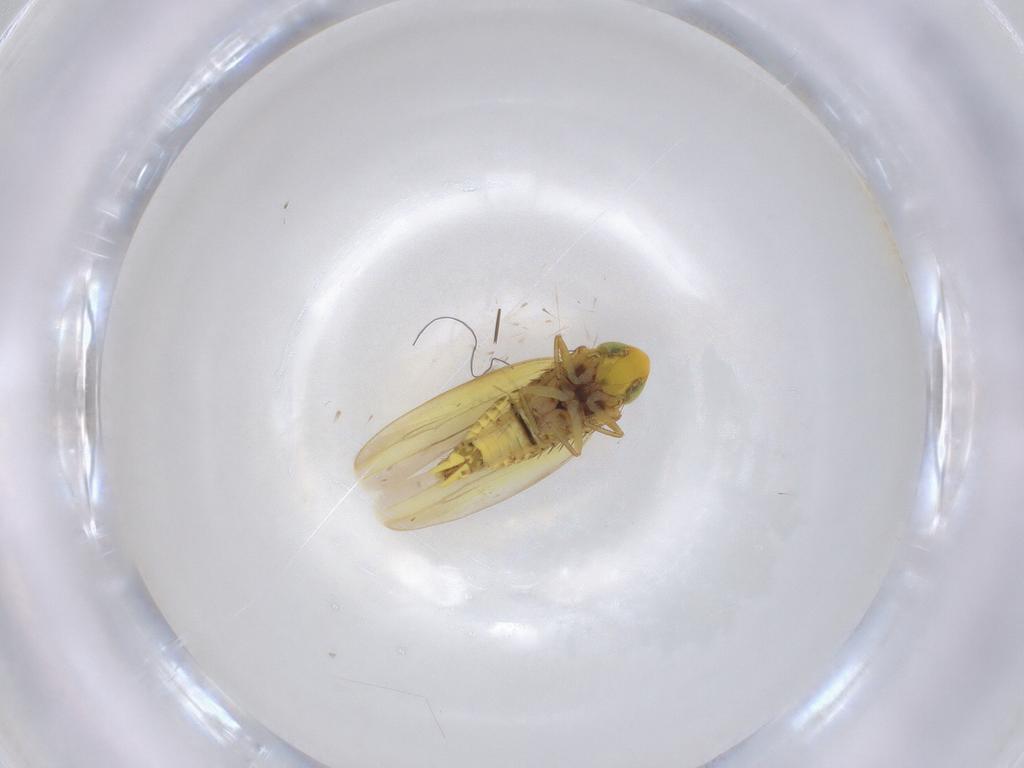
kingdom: Animalia
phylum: Arthropoda
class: Insecta
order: Hemiptera
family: Cicadellidae
